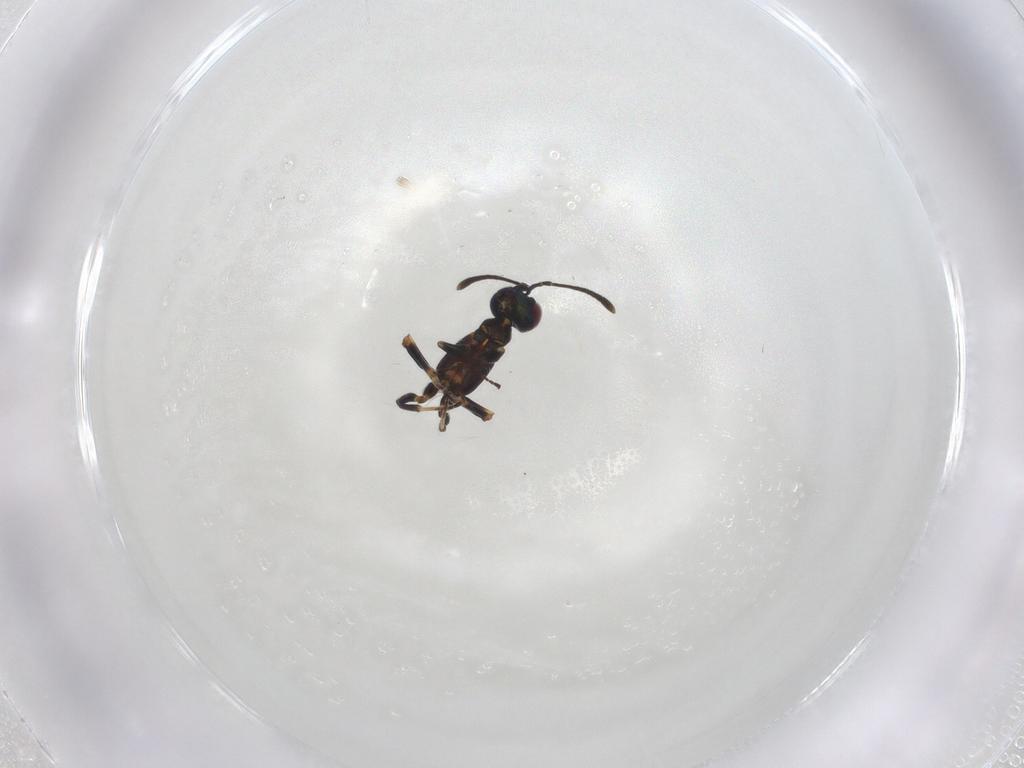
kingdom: Animalia
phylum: Arthropoda
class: Insecta
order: Hymenoptera
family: Eupelmidae
